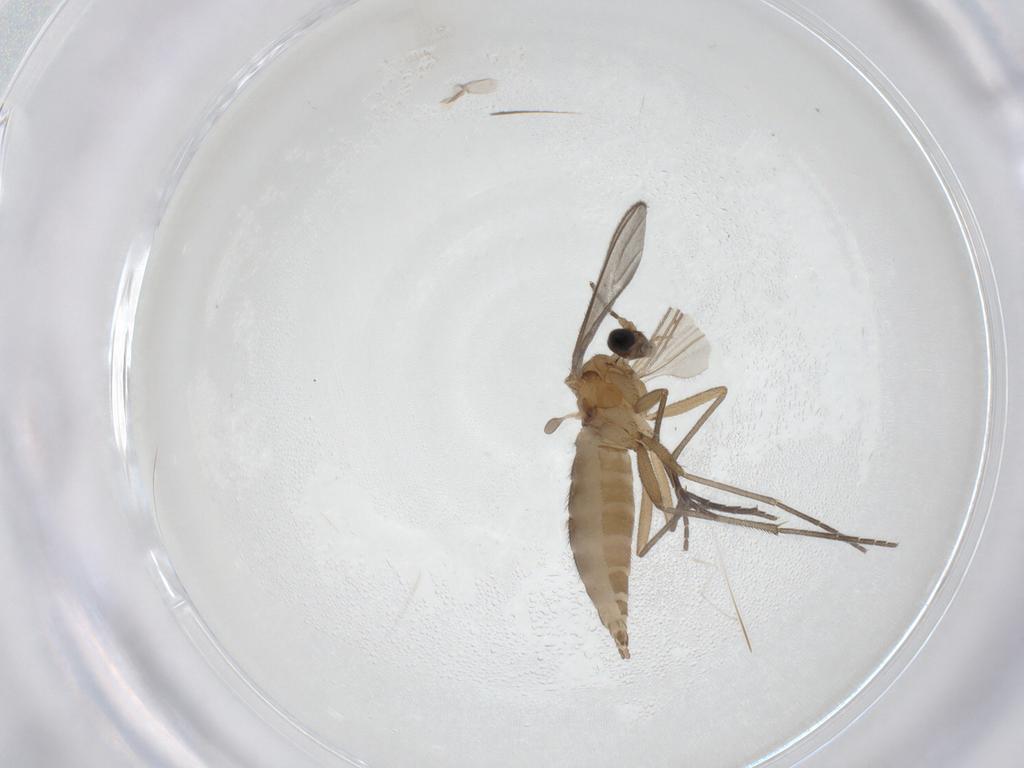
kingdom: Animalia
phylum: Arthropoda
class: Insecta
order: Diptera
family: Sciaridae
